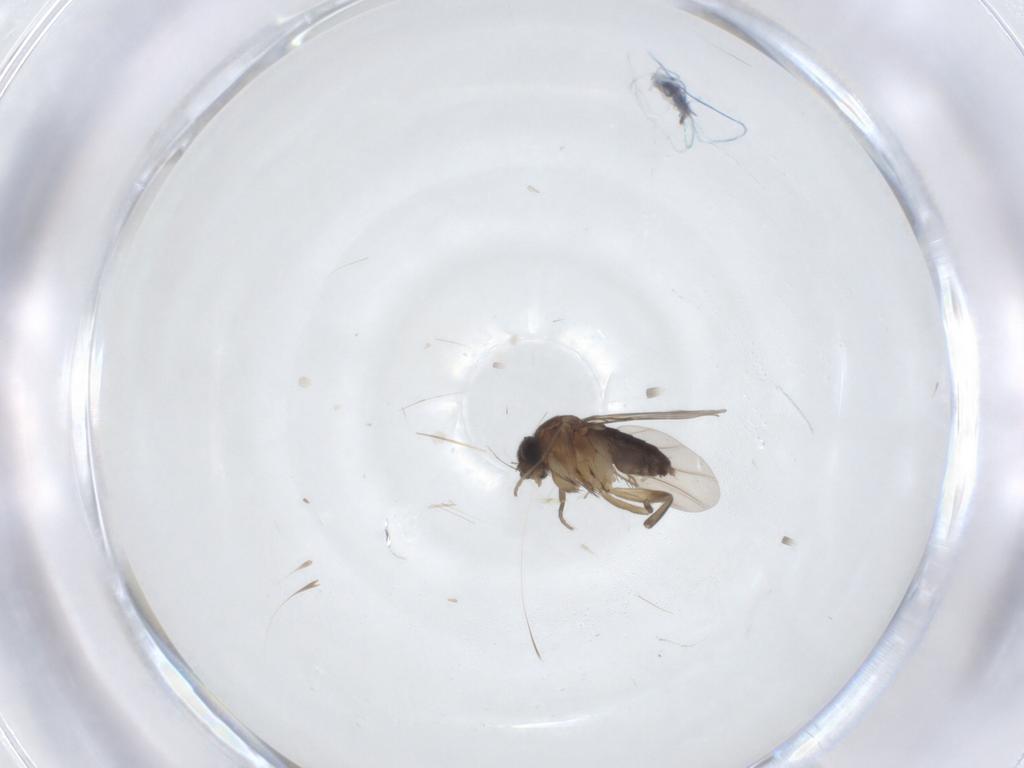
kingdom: Animalia
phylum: Arthropoda
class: Insecta
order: Diptera
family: Phoridae
